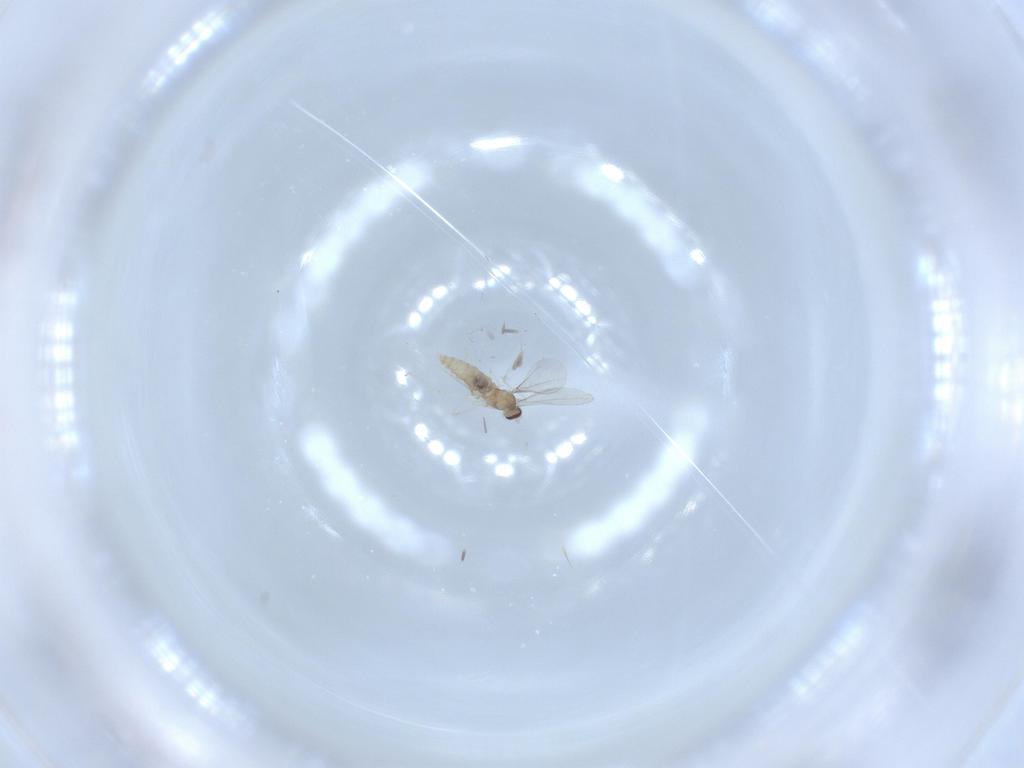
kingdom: Animalia
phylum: Arthropoda
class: Insecta
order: Diptera
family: Cecidomyiidae
